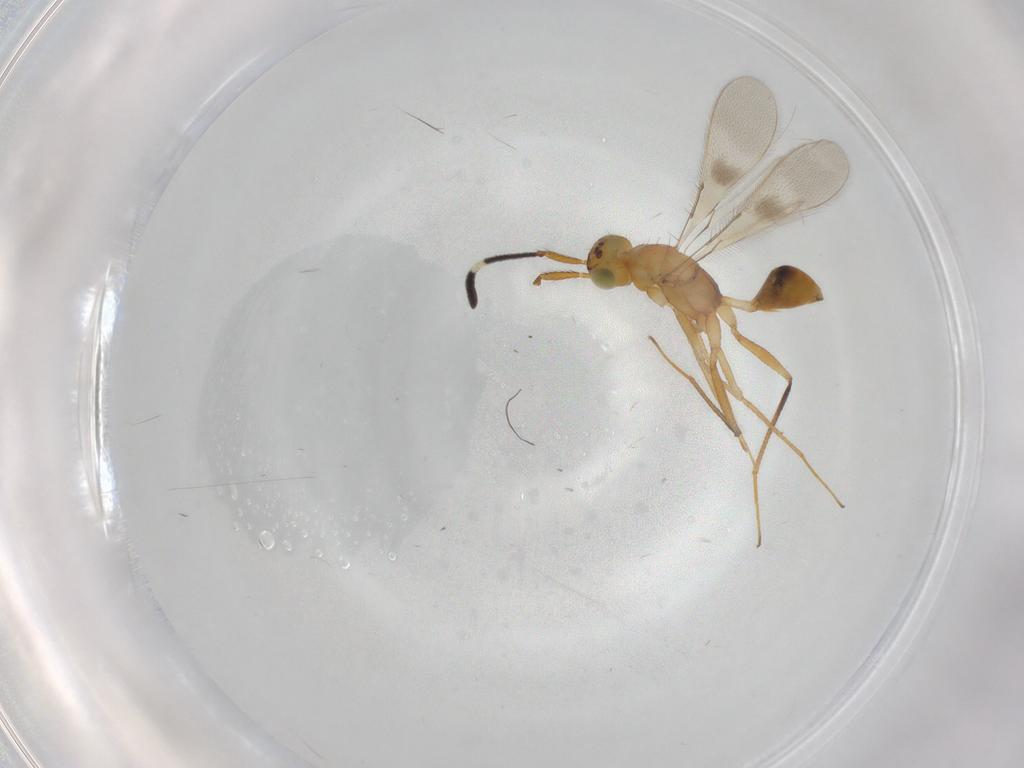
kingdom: Animalia
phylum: Arthropoda
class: Insecta
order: Hymenoptera
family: Mymaridae
